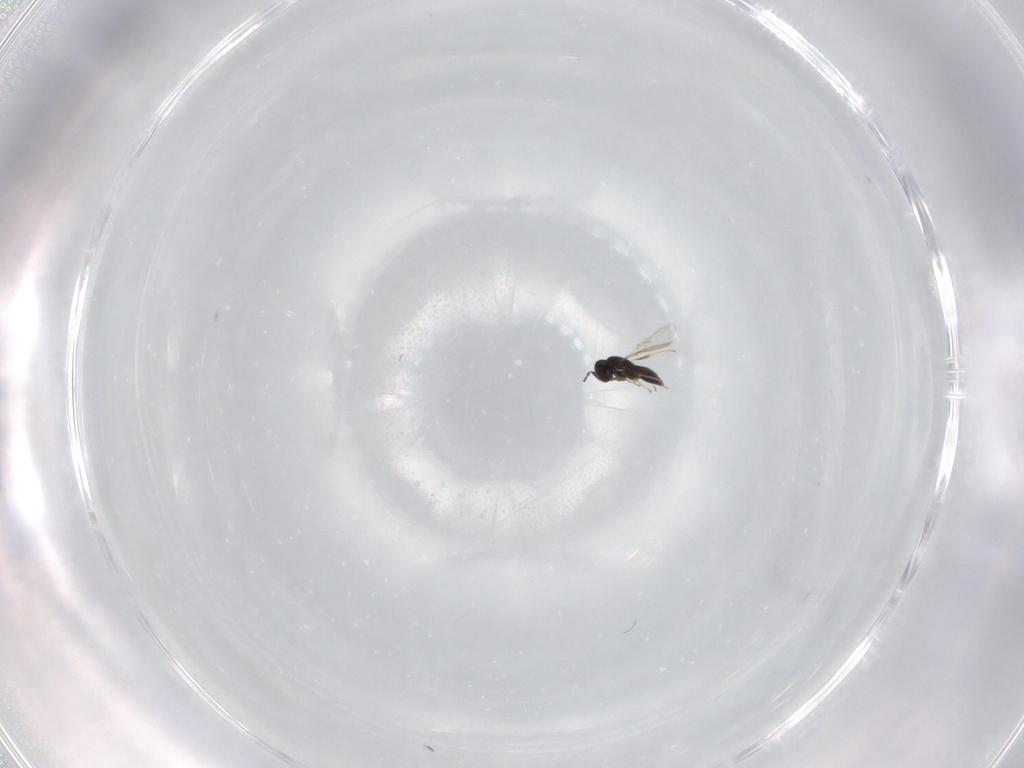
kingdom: Animalia
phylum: Arthropoda
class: Insecta
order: Hymenoptera
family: Scelionidae
